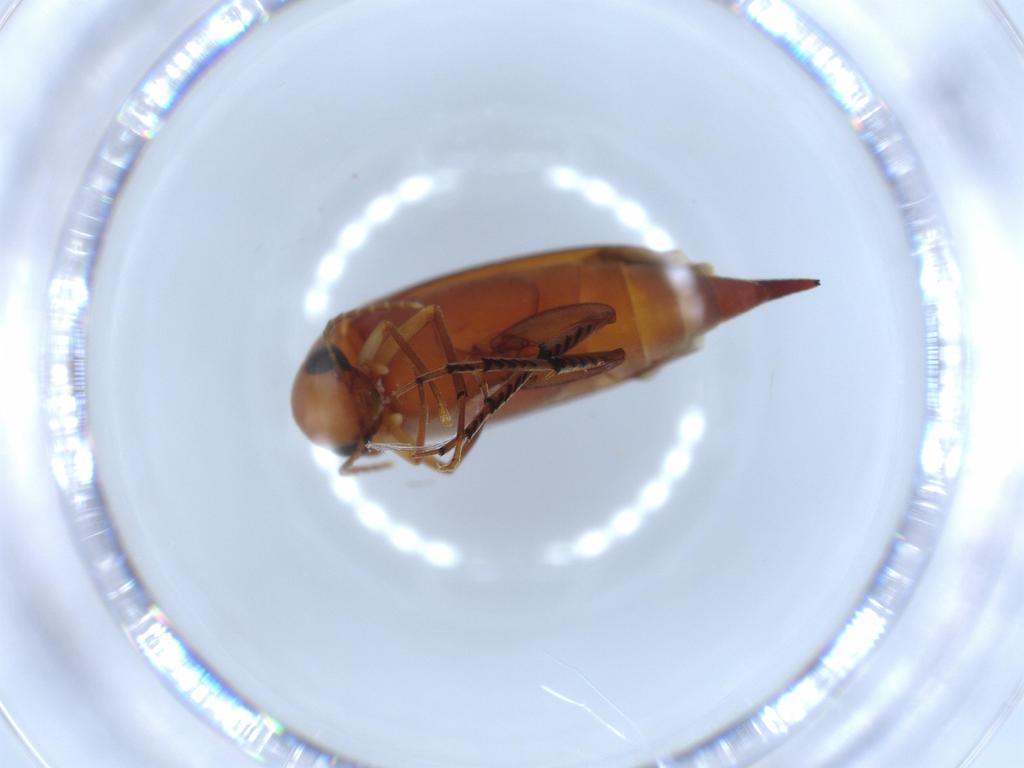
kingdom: Animalia
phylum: Arthropoda
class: Insecta
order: Coleoptera
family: Mordellidae
